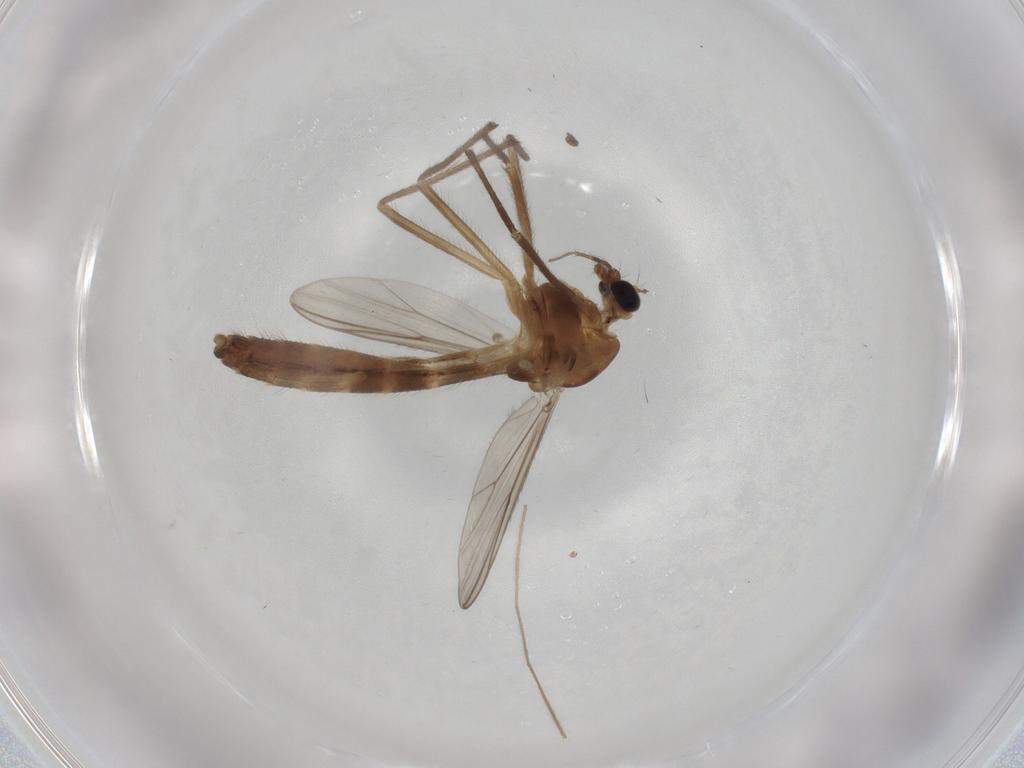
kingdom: Animalia
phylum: Arthropoda
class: Insecta
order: Diptera
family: Chironomidae
